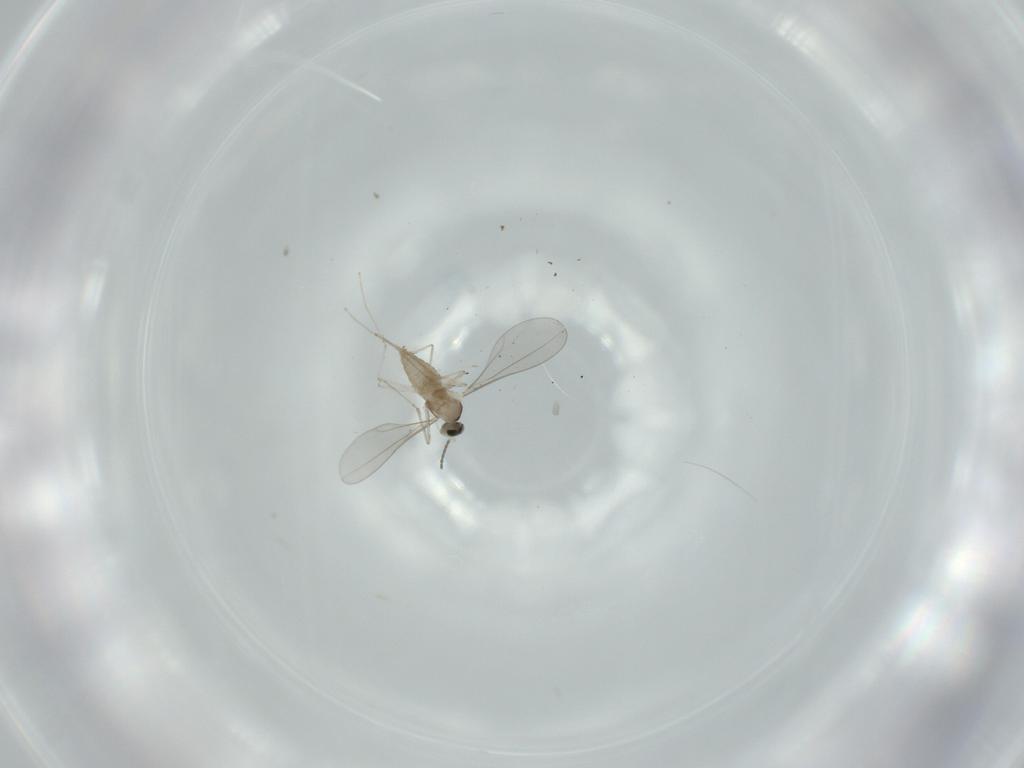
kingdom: Animalia
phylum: Arthropoda
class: Insecta
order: Diptera
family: Cecidomyiidae
